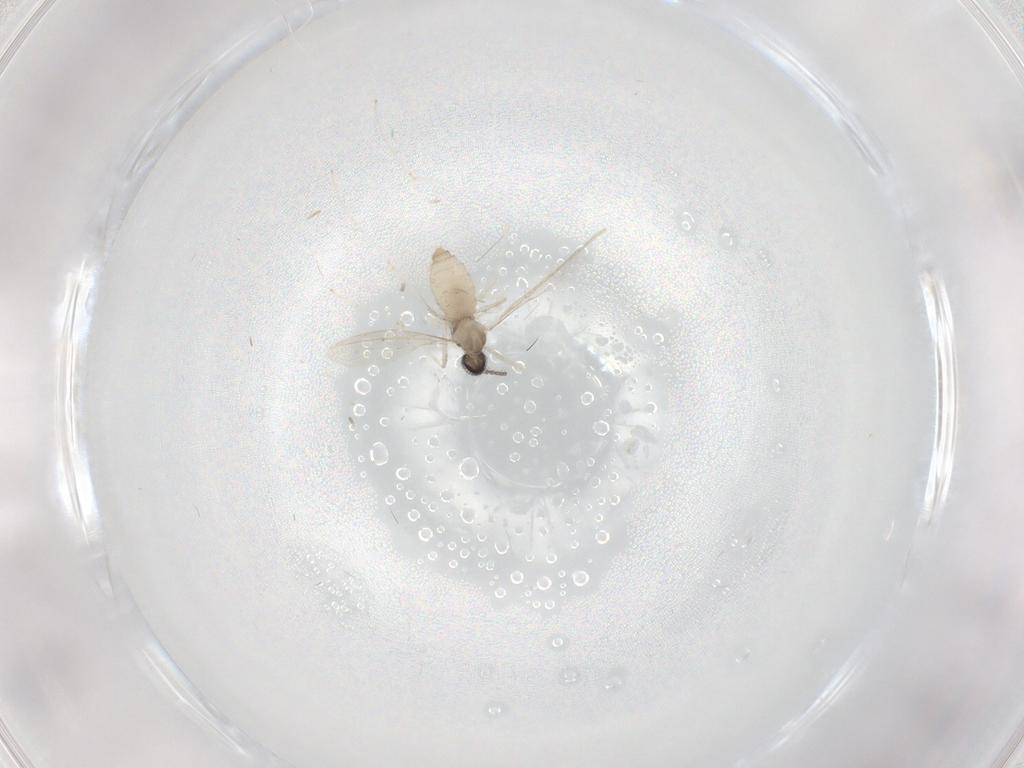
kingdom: Animalia
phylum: Arthropoda
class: Insecta
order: Diptera
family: Cecidomyiidae
